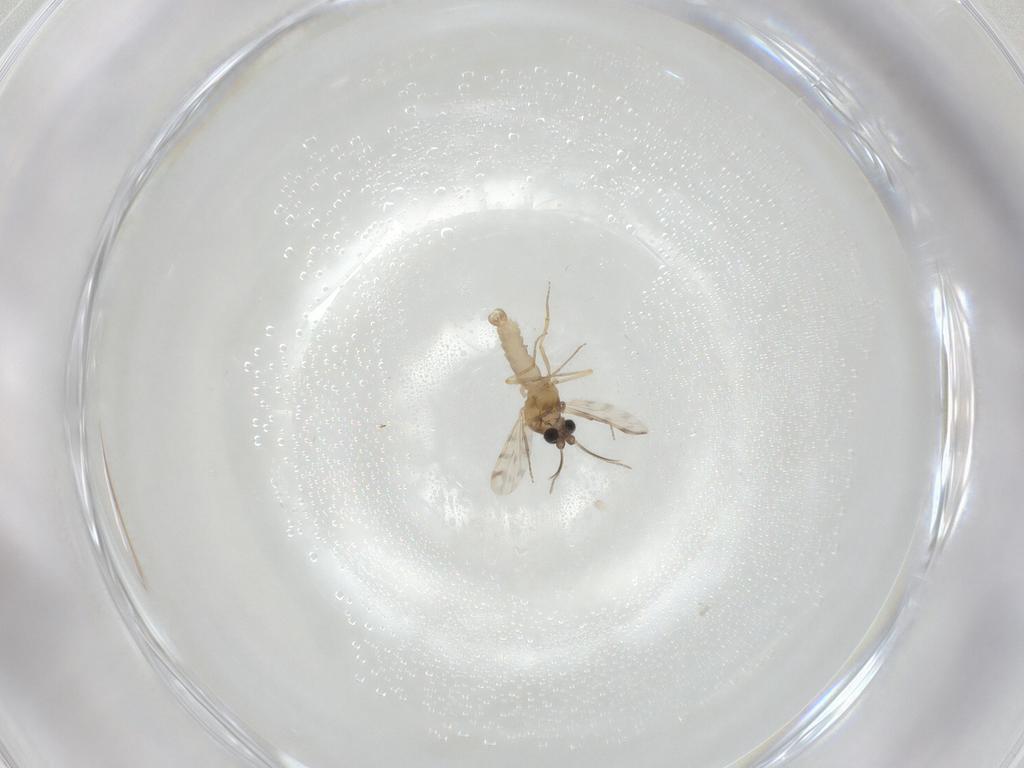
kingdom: Animalia
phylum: Arthropoda
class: Insecta
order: Diptera
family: Ceratopogonidae
